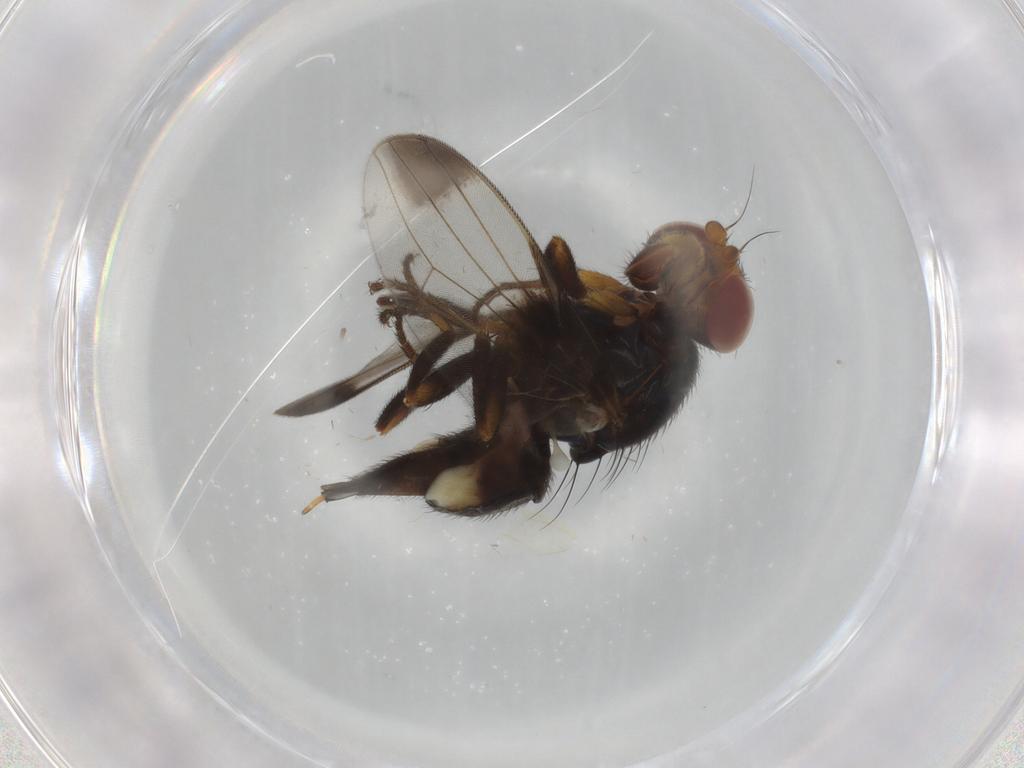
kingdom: Animalia
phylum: Arthropoda
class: Insecta
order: Diptera
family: Ulidiidae
